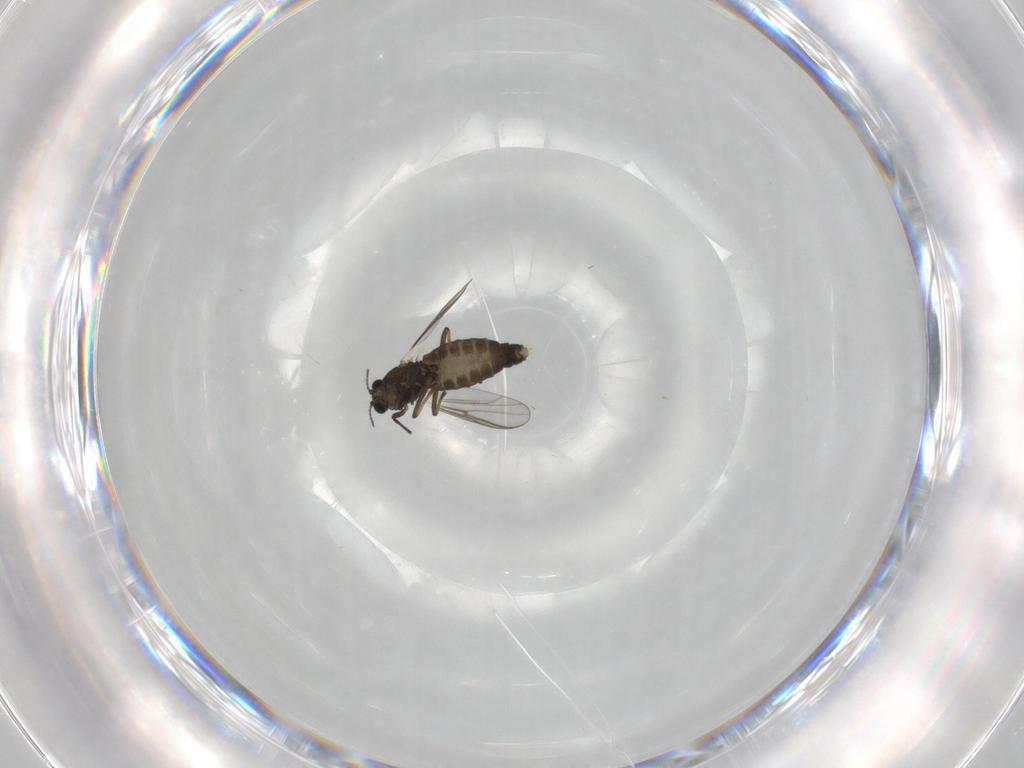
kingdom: Animalia
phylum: Arthropoda
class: Insecta
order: Diptera
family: Chironomidae
